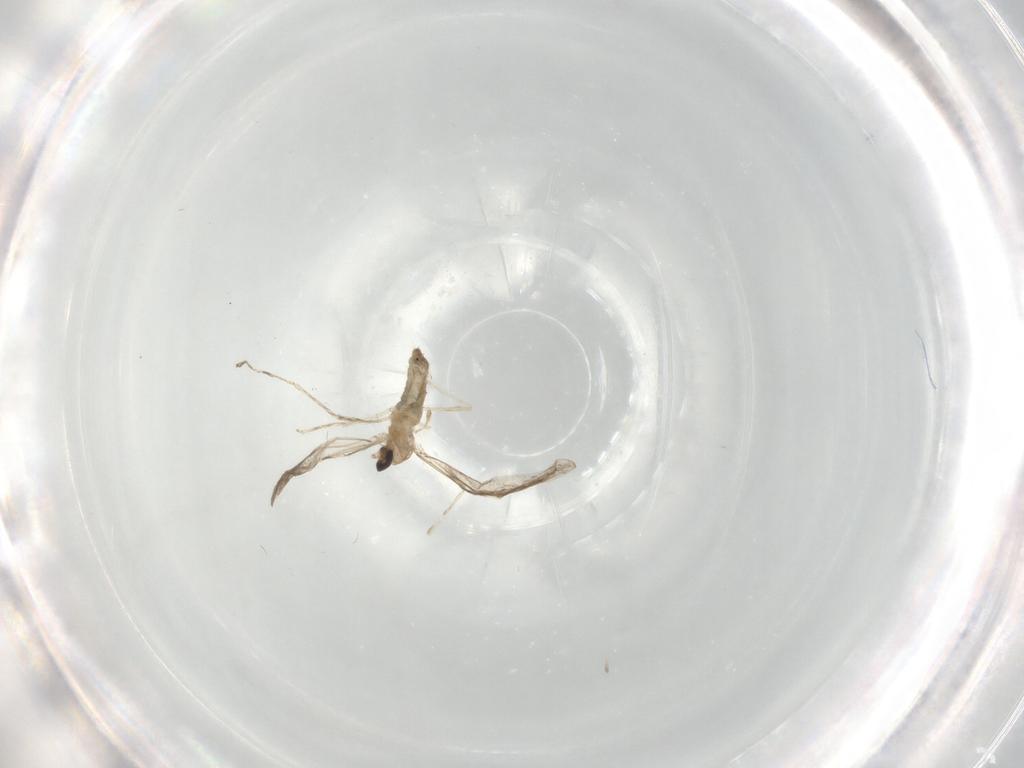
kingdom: Animalia
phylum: Arthropoda
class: Insecta
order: Diptera
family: Cecidomyiidae
